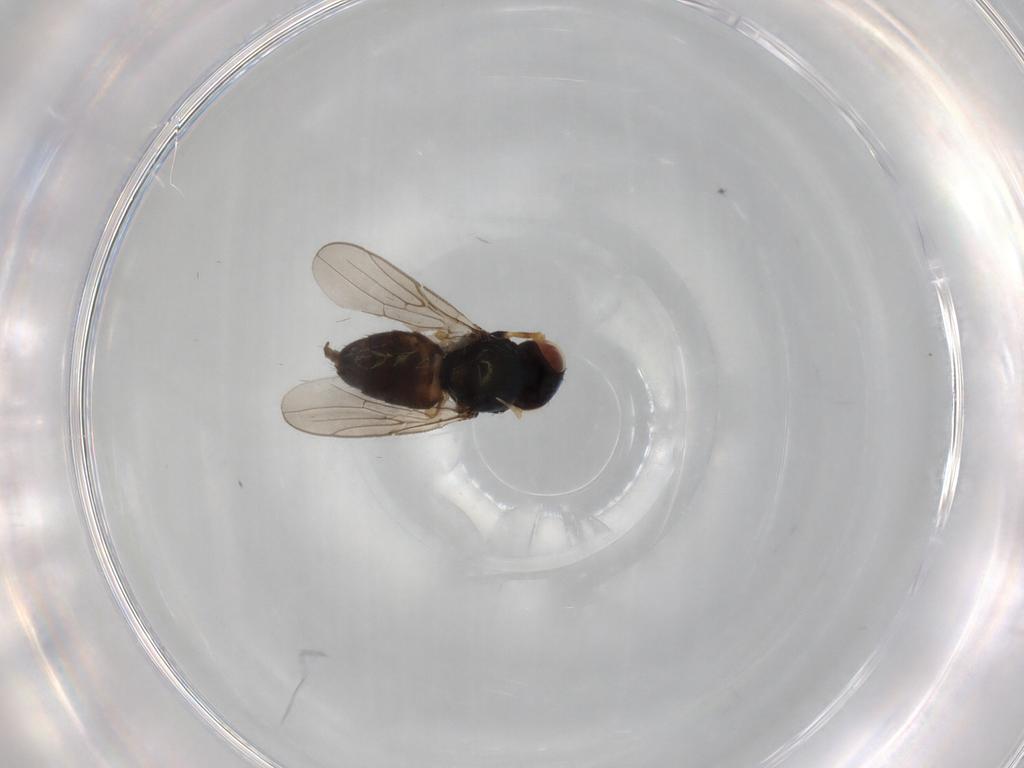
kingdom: Animalia
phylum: Arthropoda
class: Insecta
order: Diptera
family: Chloropidae
